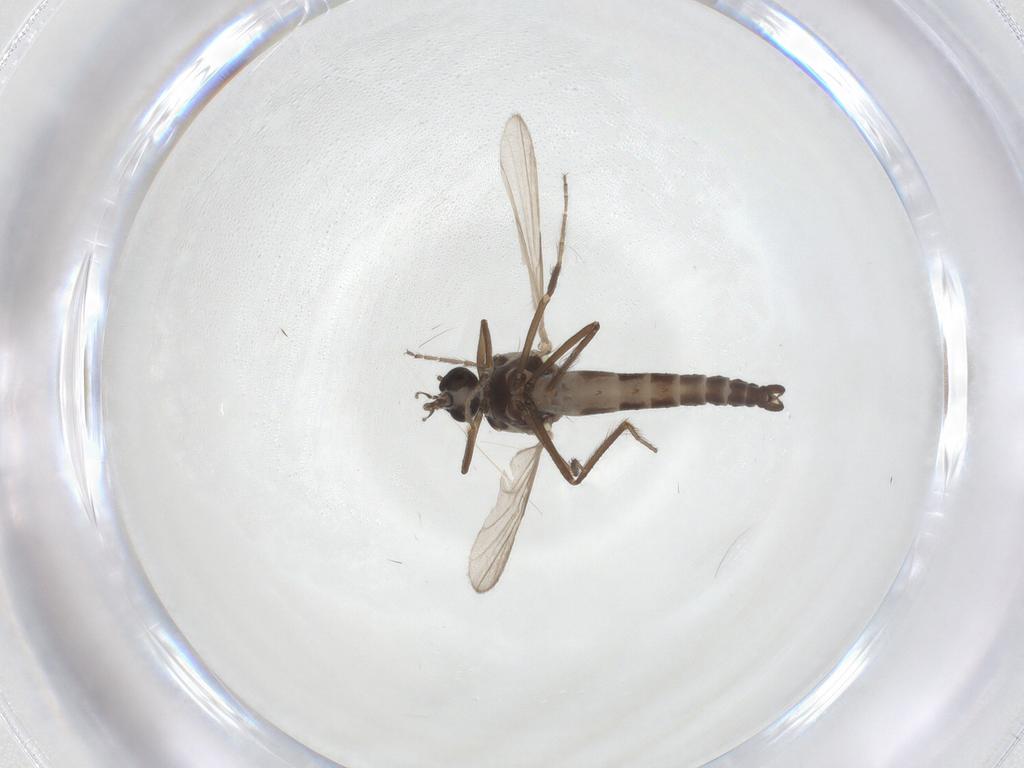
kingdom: Animalia
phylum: Arthropoda
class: Insecta
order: Diptera
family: Ceratopogonidae
